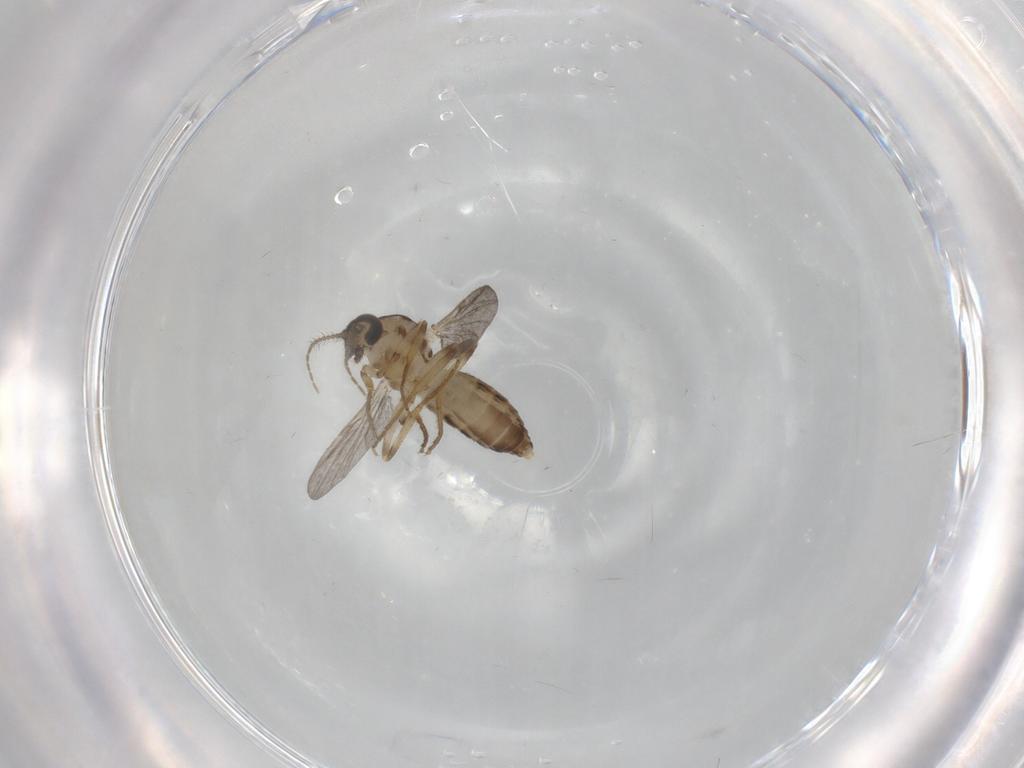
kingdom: Animalia
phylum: Arthropoda
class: Insecta
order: Diptera
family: Ceratopogonidae
